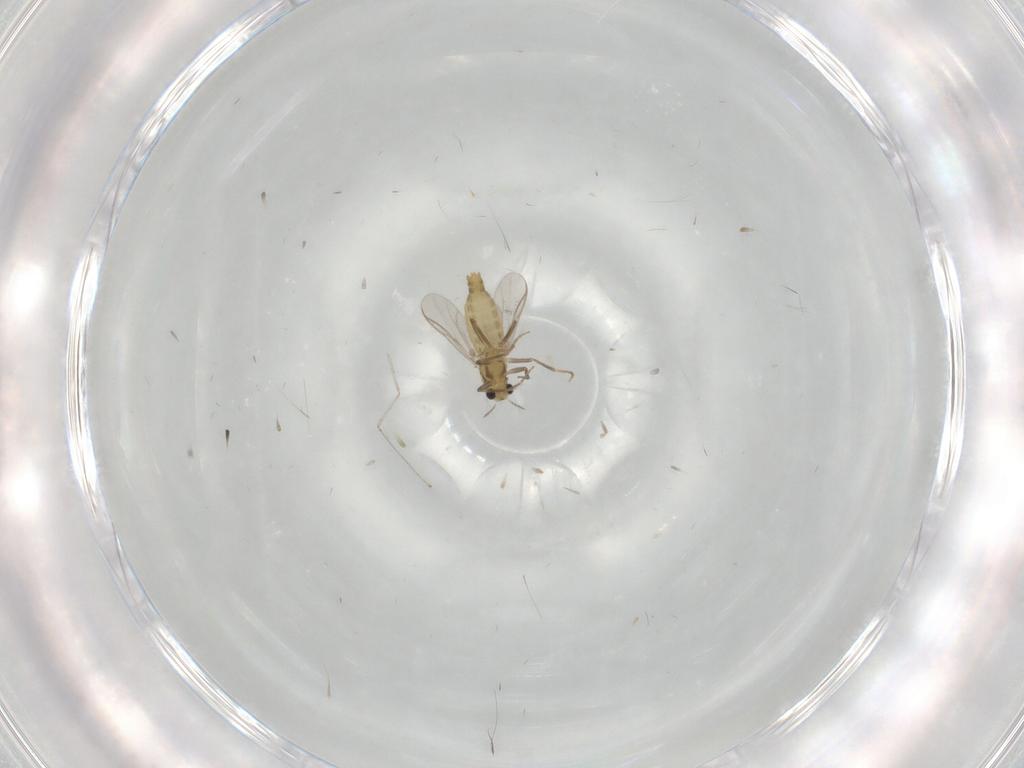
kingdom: Animalia
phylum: Arthropoda
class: Insecta
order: Diptera
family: Chironomidae
